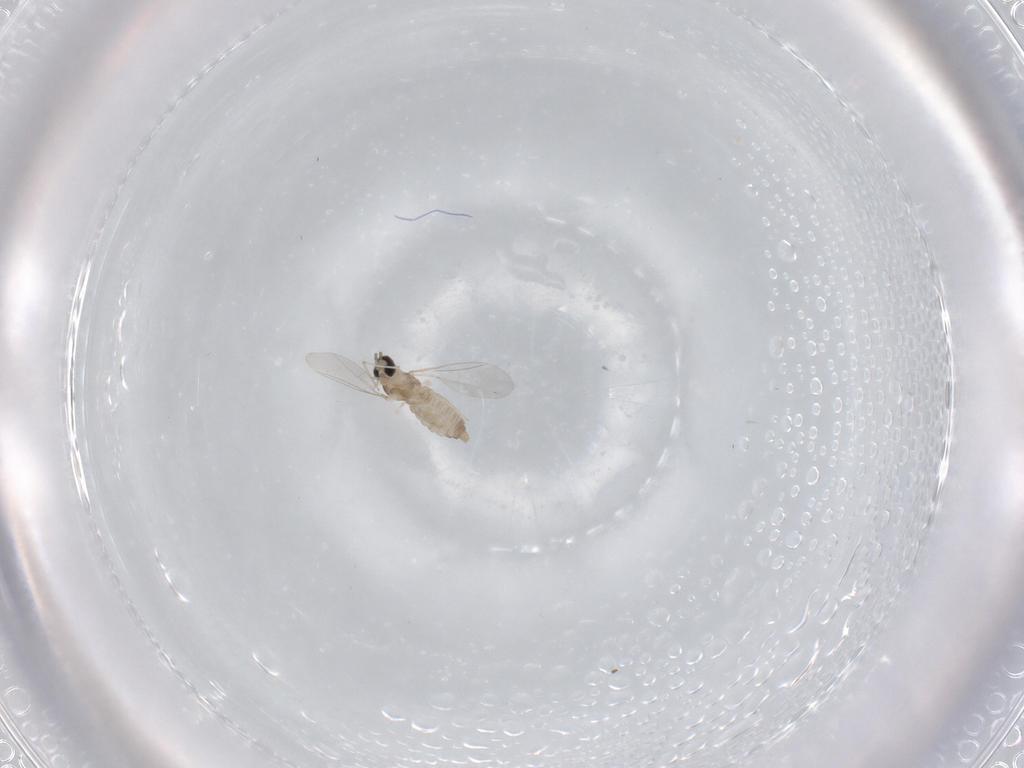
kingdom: Animalia
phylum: Arthropoda
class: Insecta
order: Diptera
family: Cecidomyiidae
